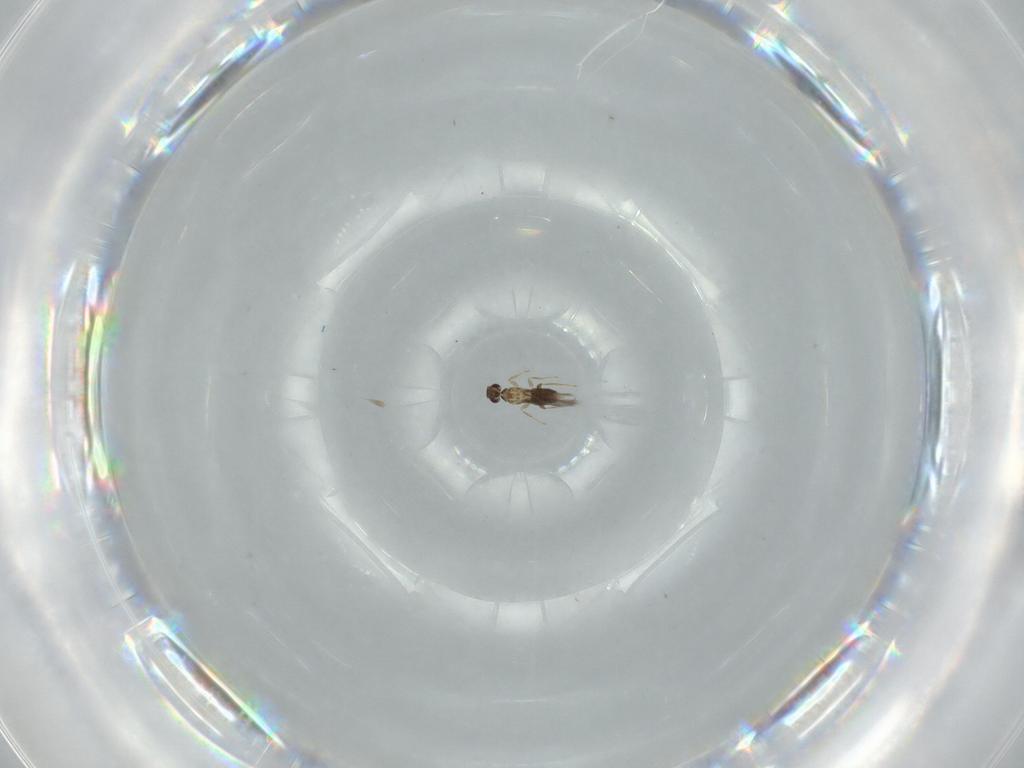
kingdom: Animalia
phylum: Arthropoda
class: Insecta
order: Hymenoptera
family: Mymaridae
